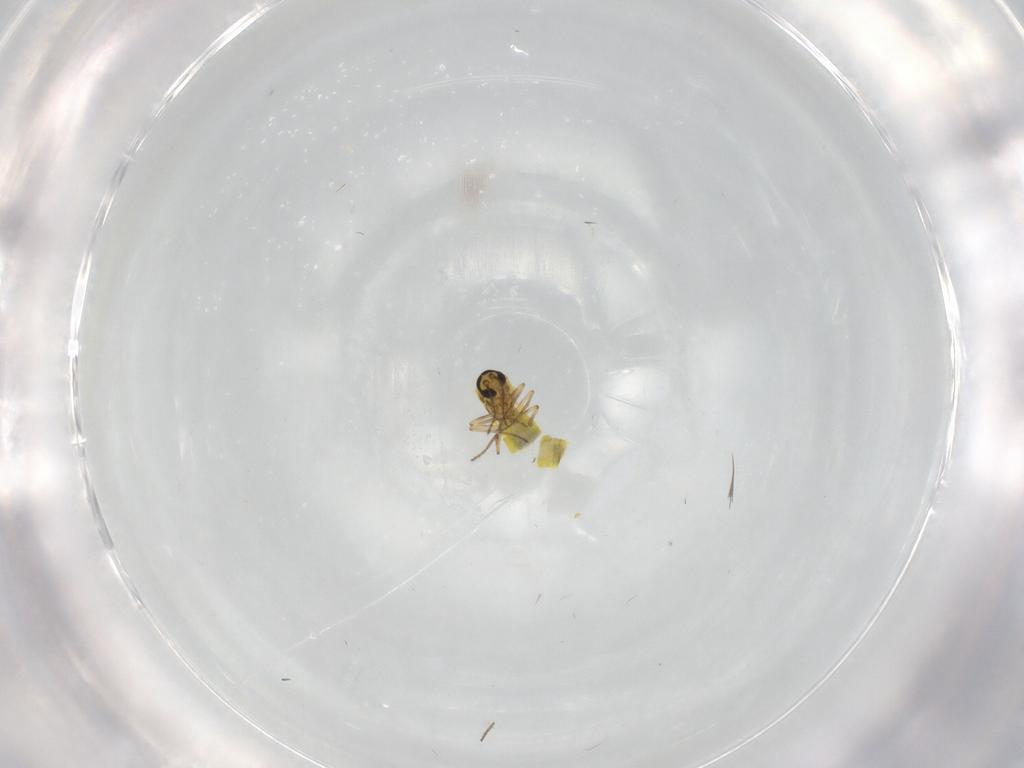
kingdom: Animalia
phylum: Arthropoda
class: Insecta
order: Diptera
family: Ceratopogonidae
